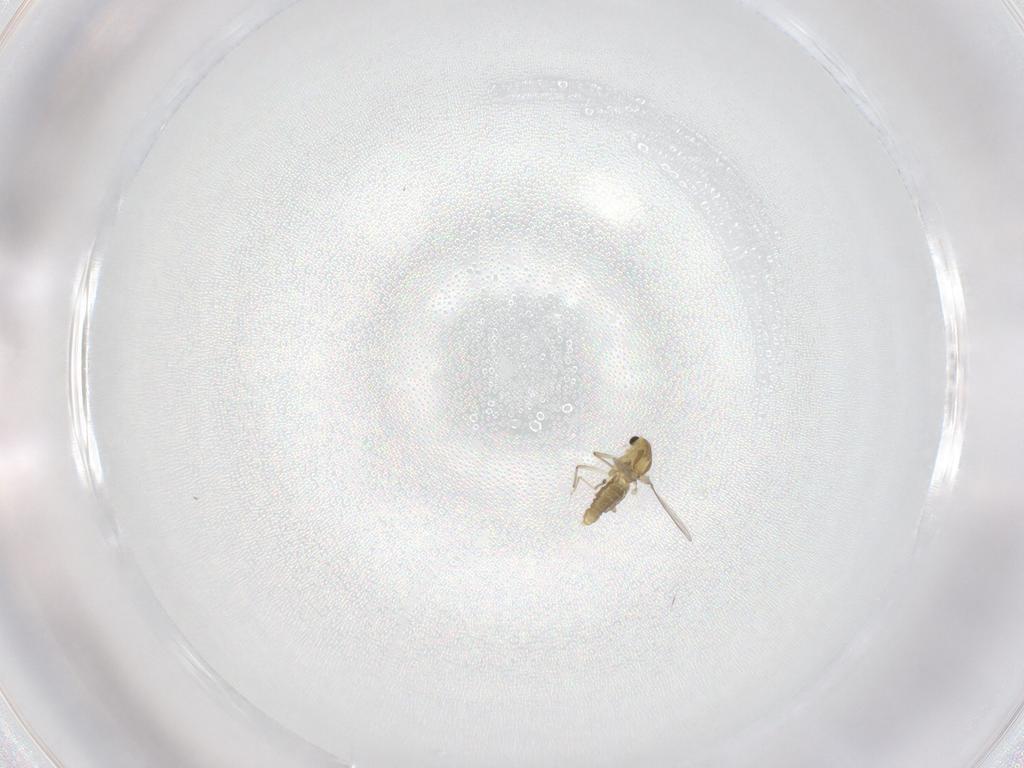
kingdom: Animalia
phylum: Arthropoda
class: Insecta
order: Diptera
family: Chironomidae
